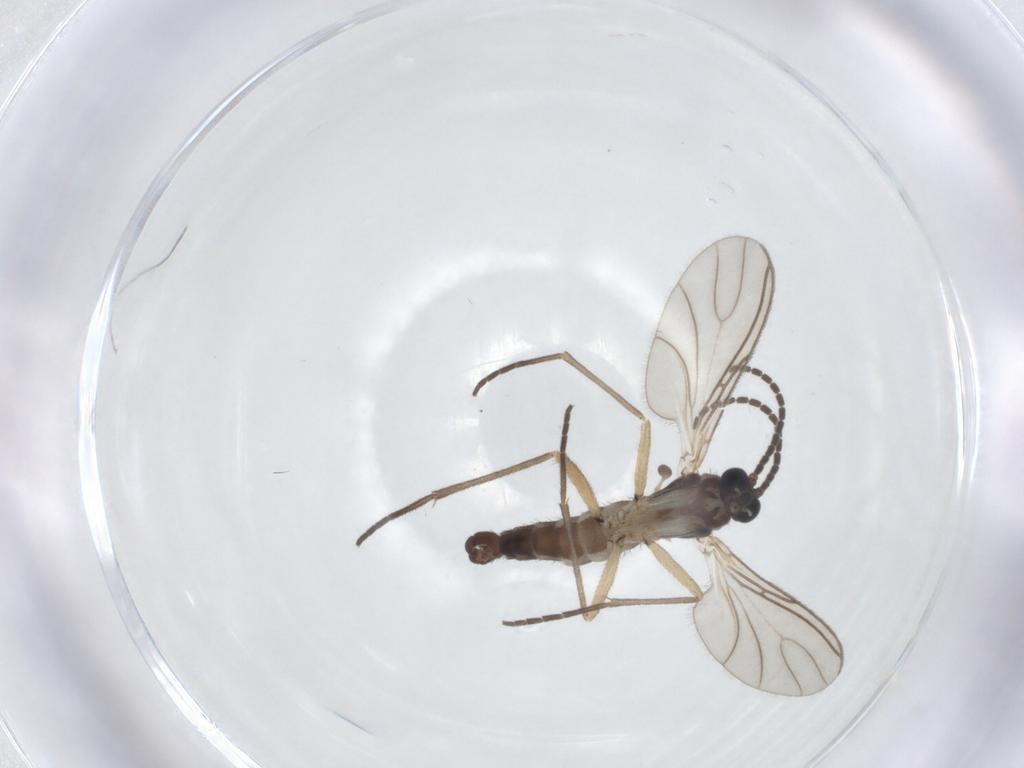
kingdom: Animalia
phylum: Arthropoda
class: Insecta
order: Diptera
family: Sciaridae
